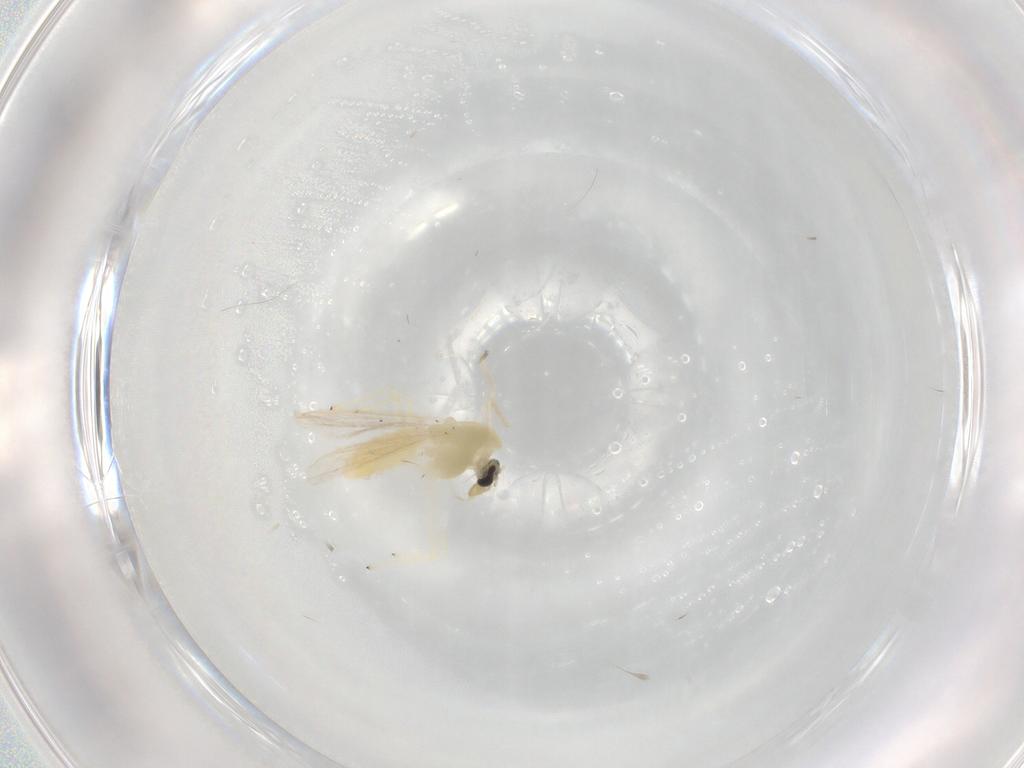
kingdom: Animalia
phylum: Arthropoda
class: Insecta
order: Diptera
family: Chironomidae
